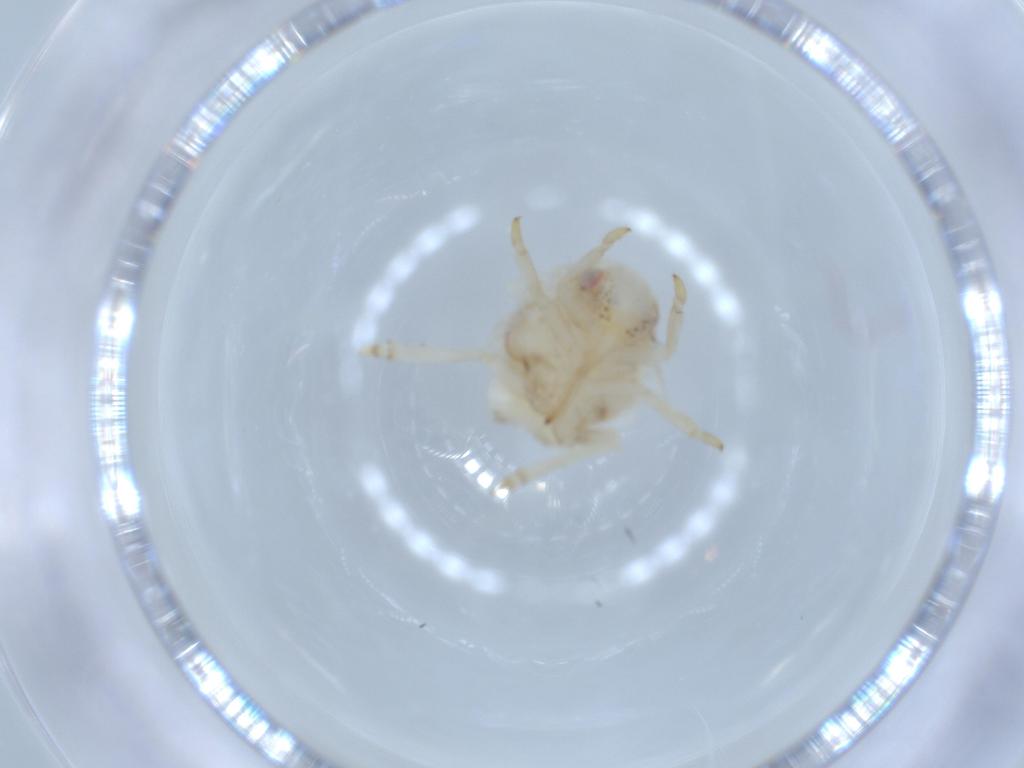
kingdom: Animalia
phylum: Arthropoda
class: Insecta
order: Hemiptera
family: Acanaloniidae
